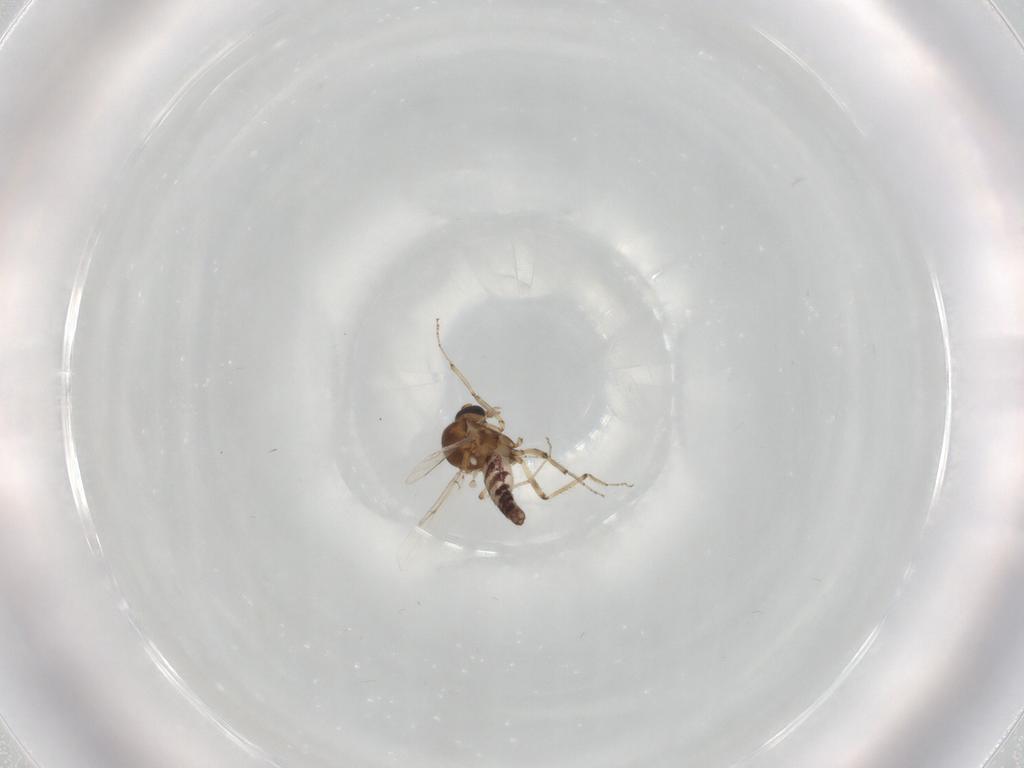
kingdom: Animalia
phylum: Arthropoda
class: Insecta
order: Diptera
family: Ceratopogonidae
